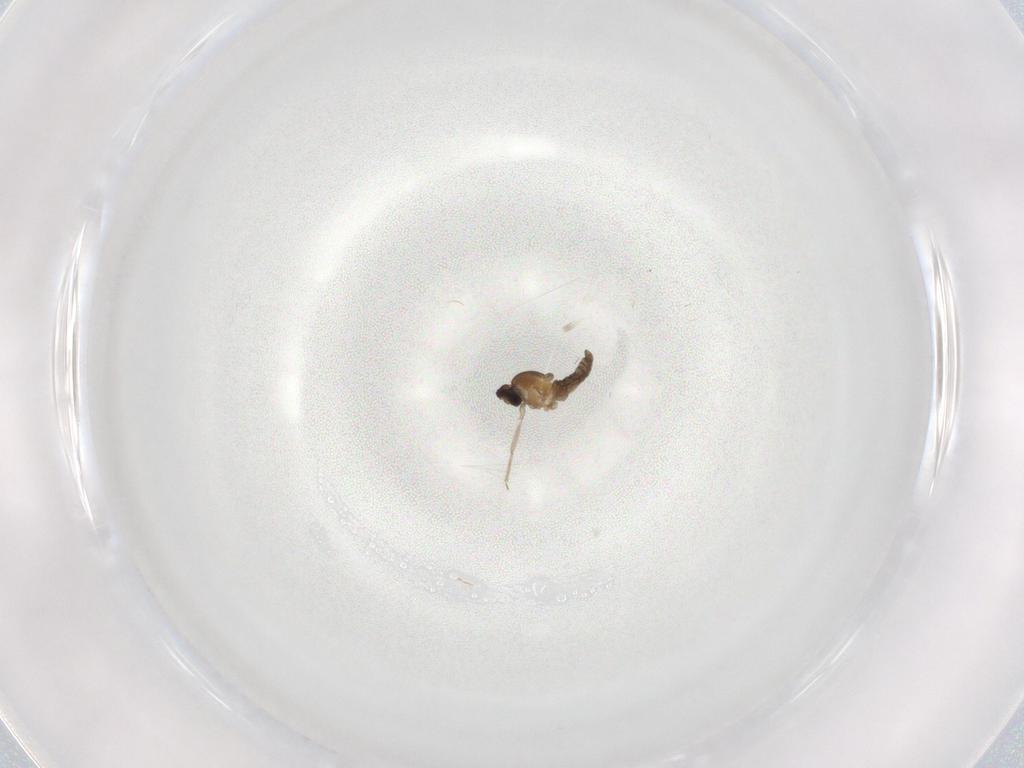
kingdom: Animalia
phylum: Arthropoda
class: Insecta
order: Diptera
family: Cecidomyiidae
